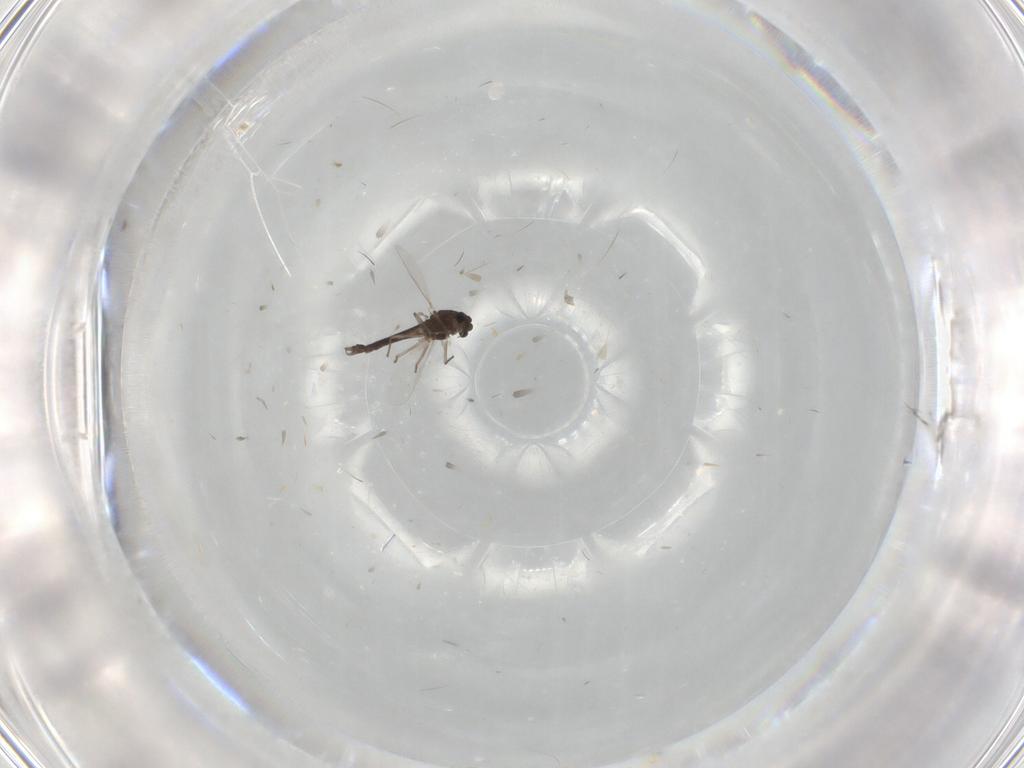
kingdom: Animalia
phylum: Arthropoda
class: Insecta
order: Diptera
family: Chironomidae
